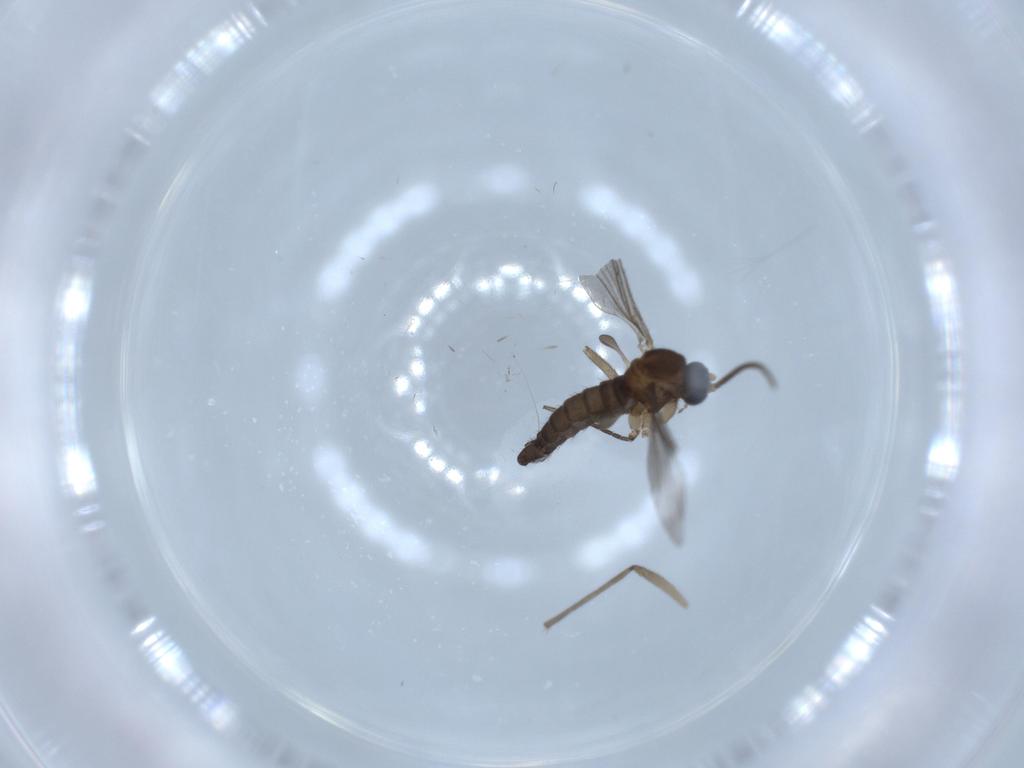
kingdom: Animalia
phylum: Arthropoda
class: Insecta
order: Diptera
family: Sciaridae
